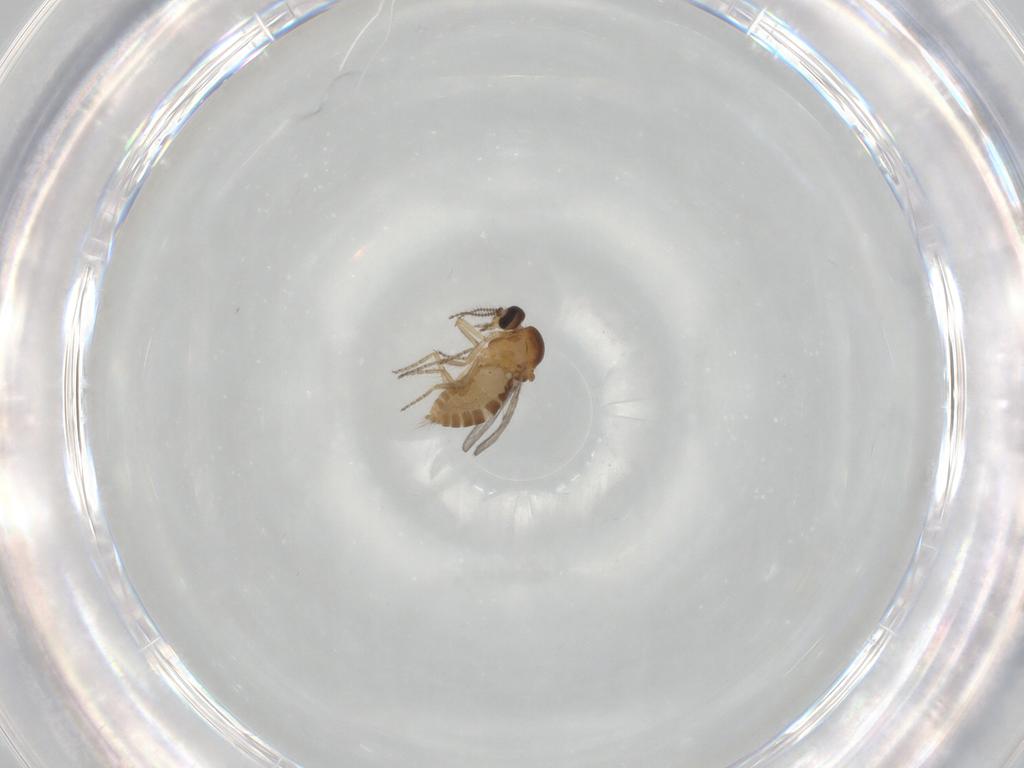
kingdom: Animalia
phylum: Arthropoda
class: Insecta
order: Diptera
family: Ceratopogonidae
